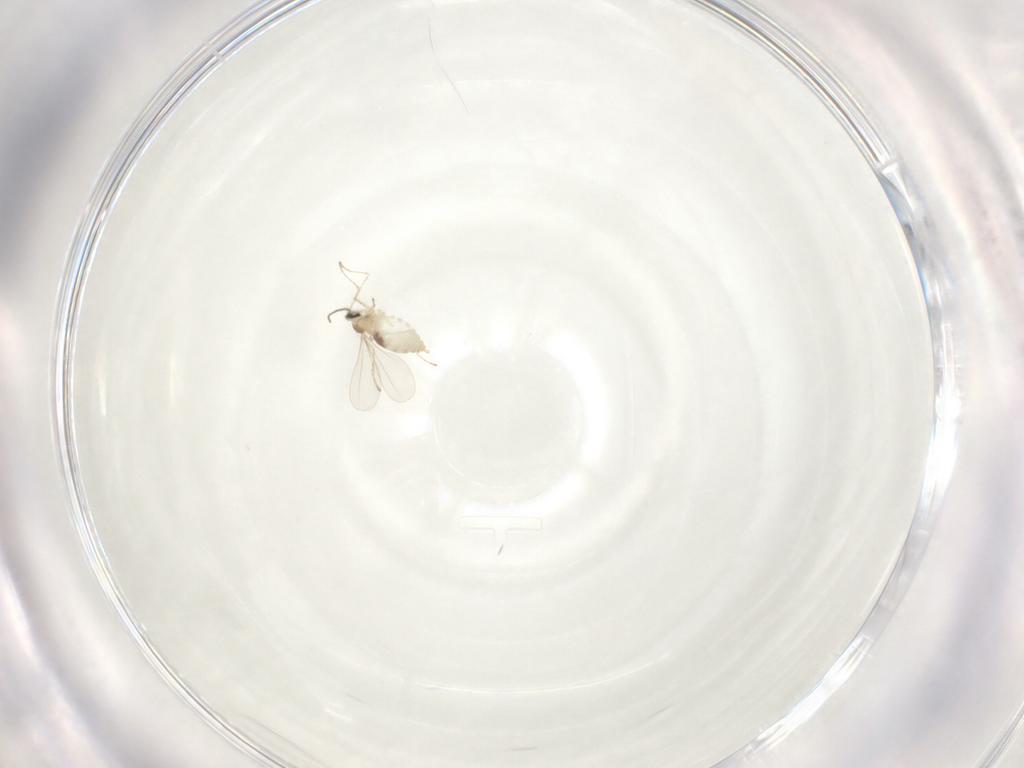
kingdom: Animalia
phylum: Arthropoda
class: Insecta
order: Diptera
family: Cecidomyiidae
